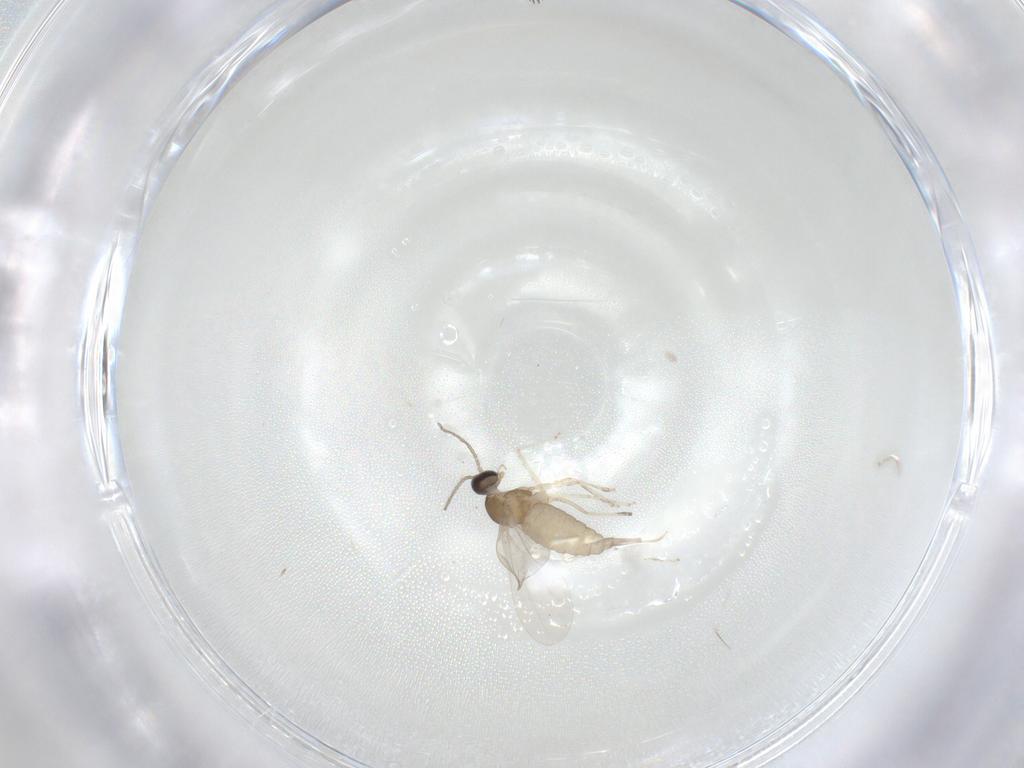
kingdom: Animalia
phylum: Arthropoda
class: Insecta
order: Diptera
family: Cecidomyiidae
